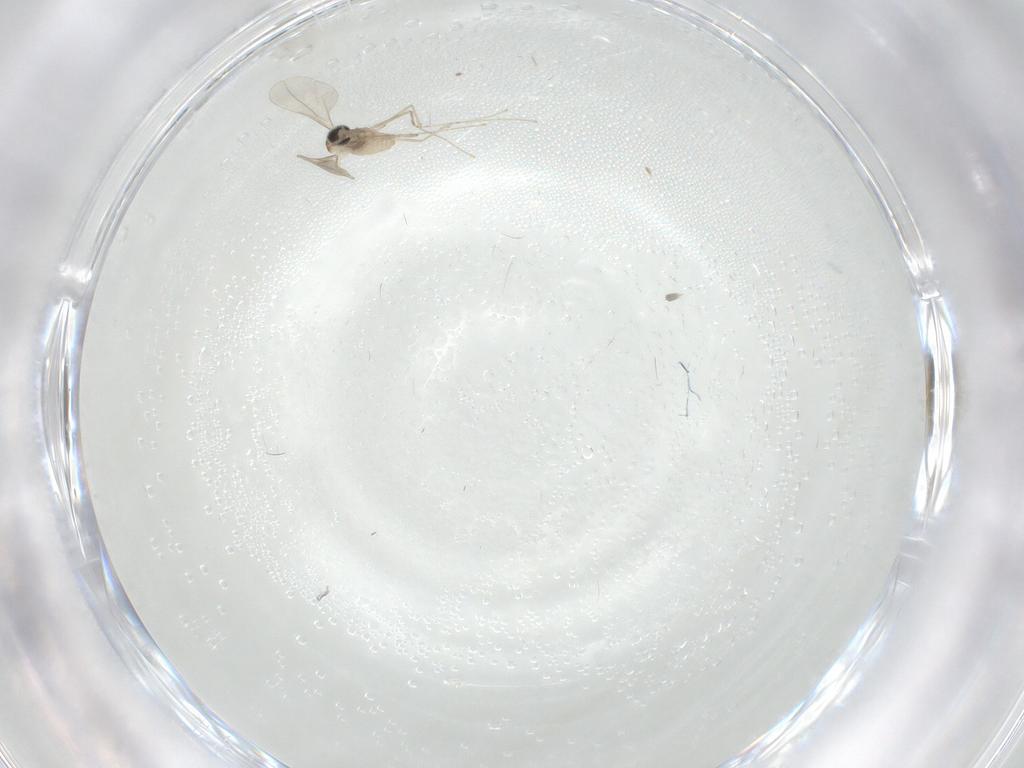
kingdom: Animalia
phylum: Arthropoda
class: Insecta
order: Diptera
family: Cecidomyiidae
